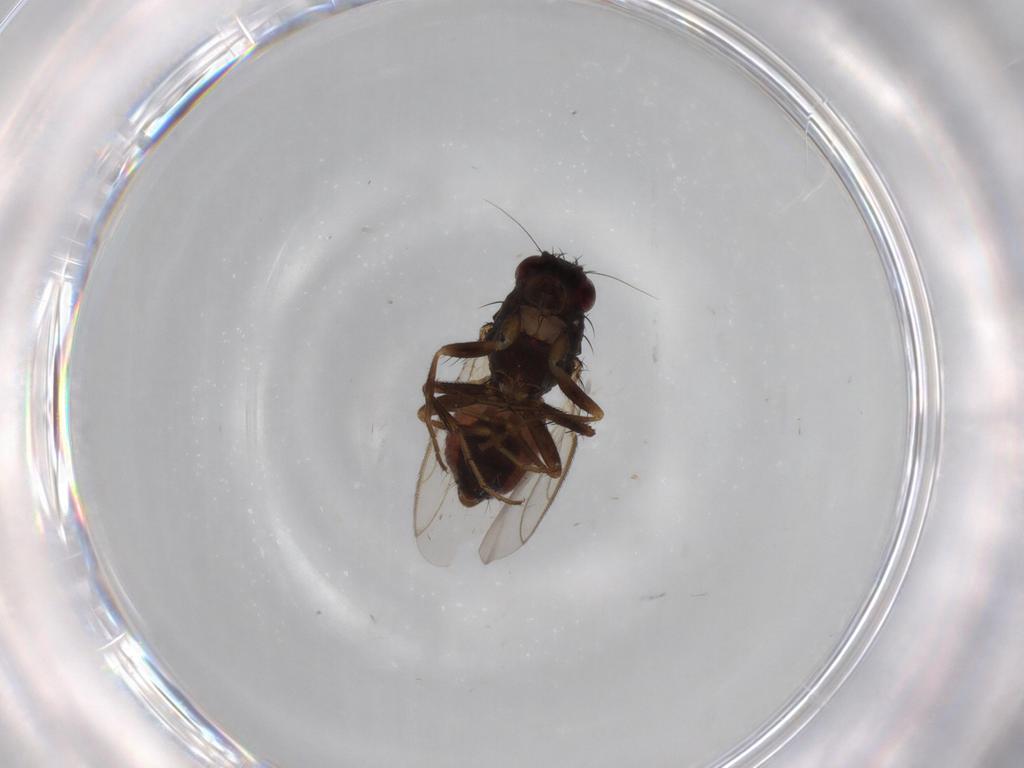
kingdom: Animalia
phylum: Arthropoda
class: Insecta
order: Diptera
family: Sphaeroceridae
